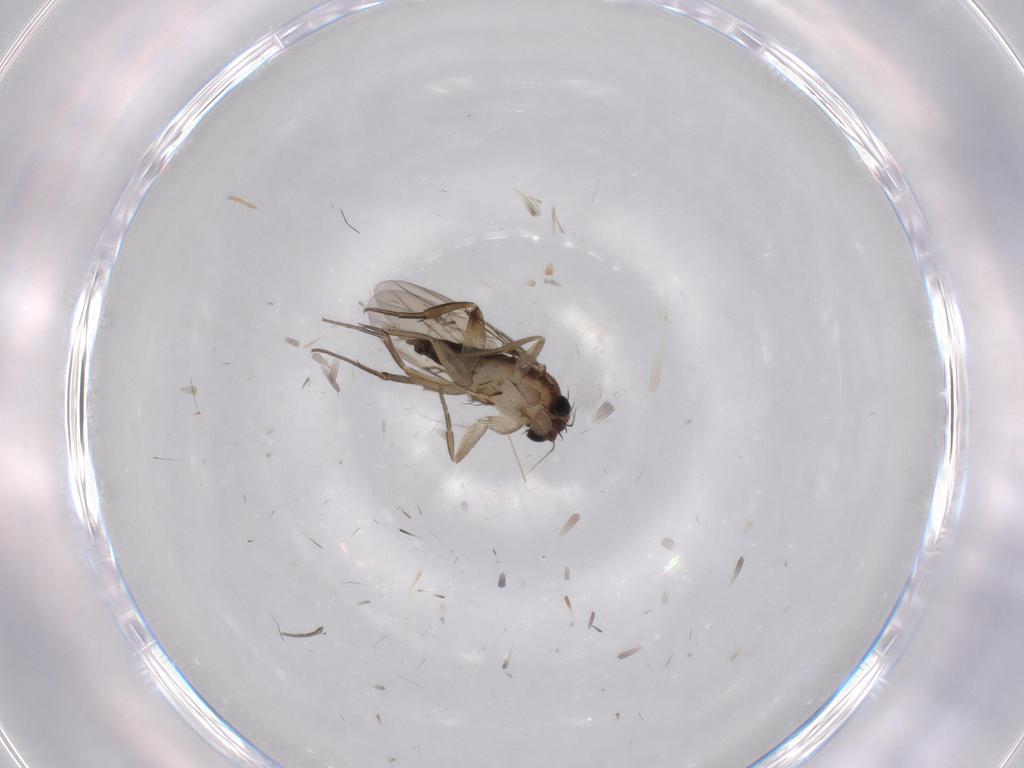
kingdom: Animalia
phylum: Arthropoda
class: Insecta
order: Diptera
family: Phoridae
